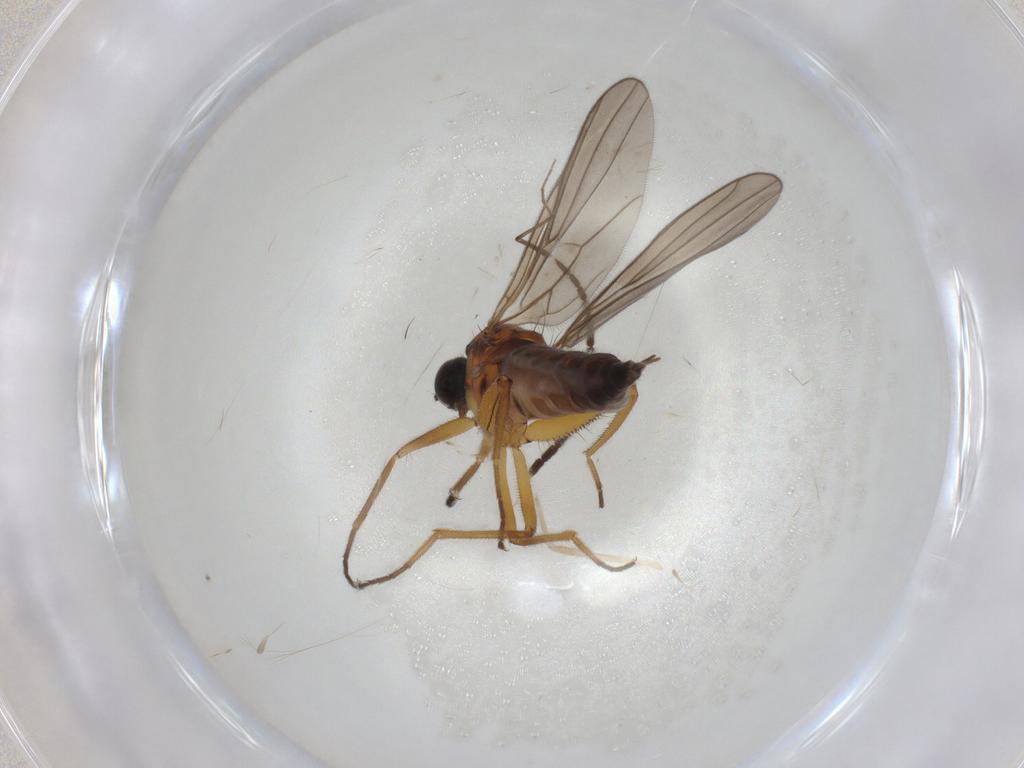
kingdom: Animalia
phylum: Arthropoda
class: Insecta
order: Diptera
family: Hybotidae
